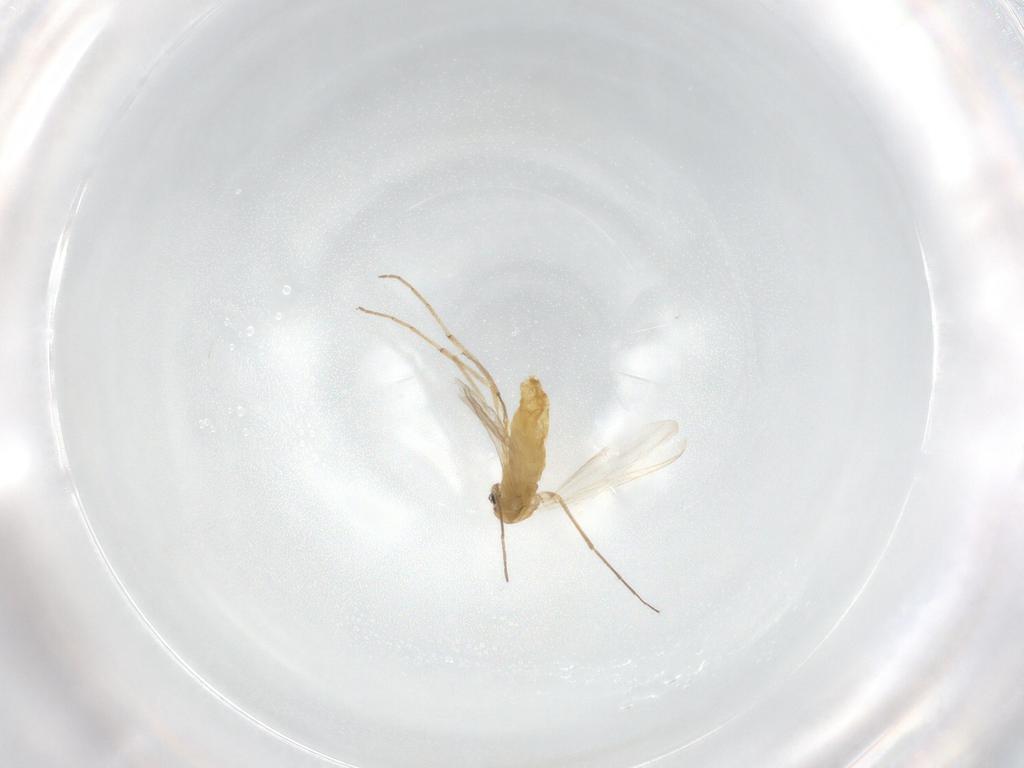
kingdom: Animalia
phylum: Arthropoda
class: Insecta
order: Diptera
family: Chironomidae
